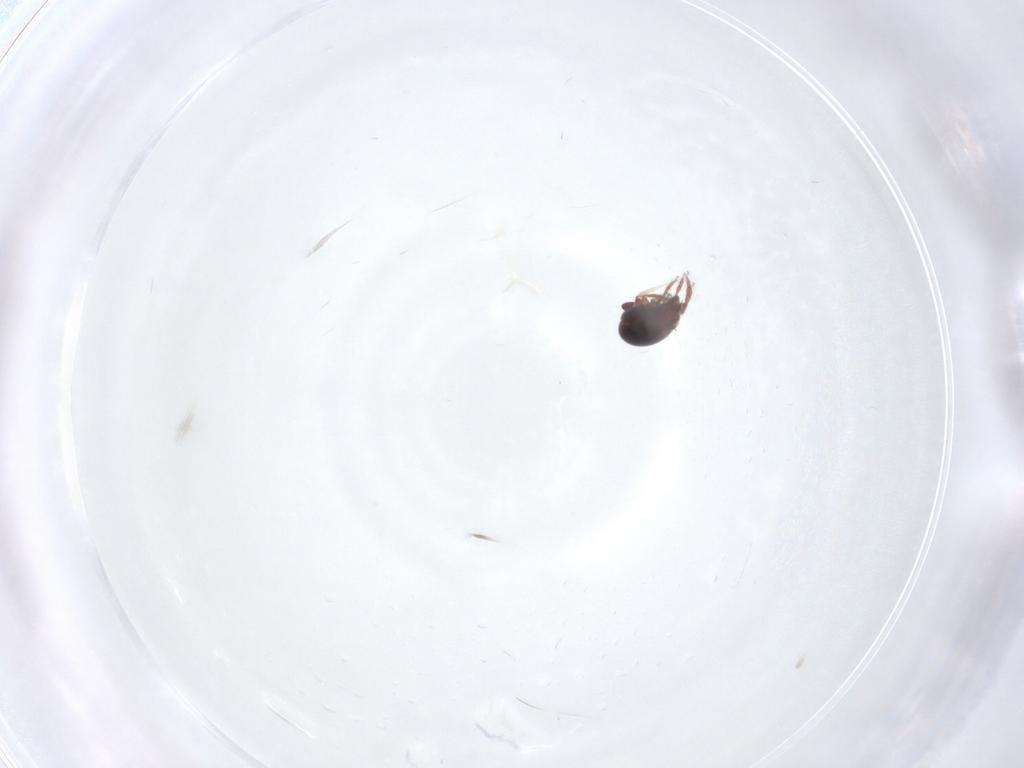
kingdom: Animalia
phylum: Arthropoda
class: Arachnida
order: Sarcoptiformes
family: Ceratozetidae
